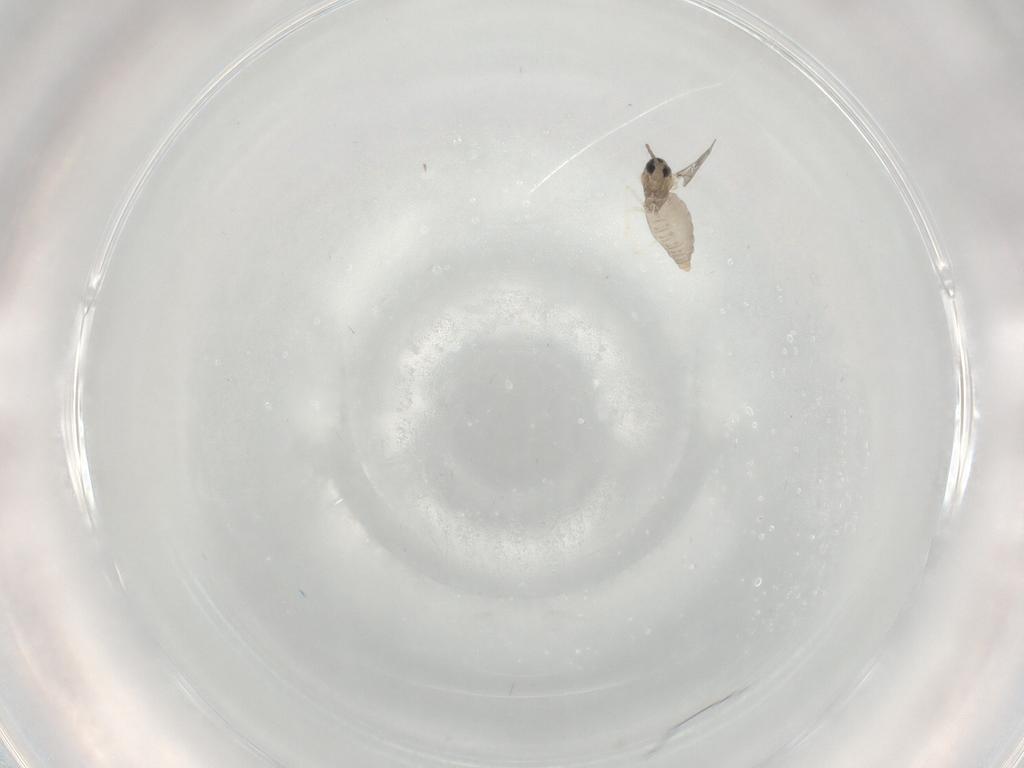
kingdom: Animalia
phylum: Arthropoda
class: Insecta
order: Diptera
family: Cecidomyiidae
